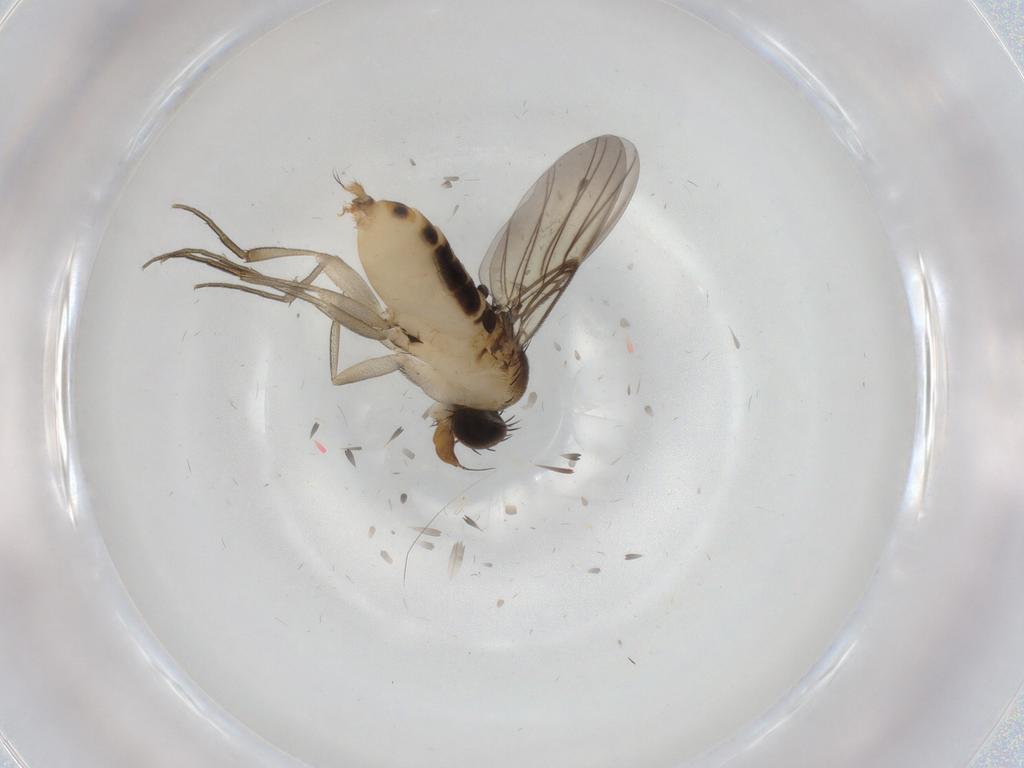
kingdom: Animalia
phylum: Arthropoda
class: Insecta
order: Diptera
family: Phoridae
